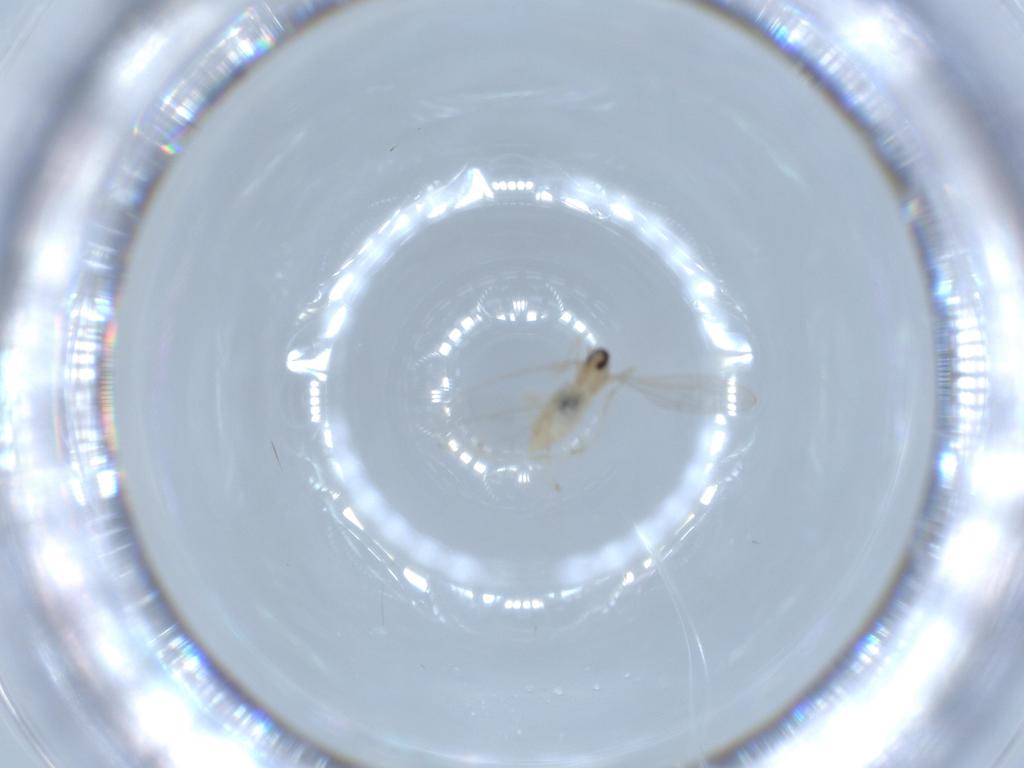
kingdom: Animalia
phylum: Arthropoda
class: Insecta
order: Diptera
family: Cecidomyiidae
